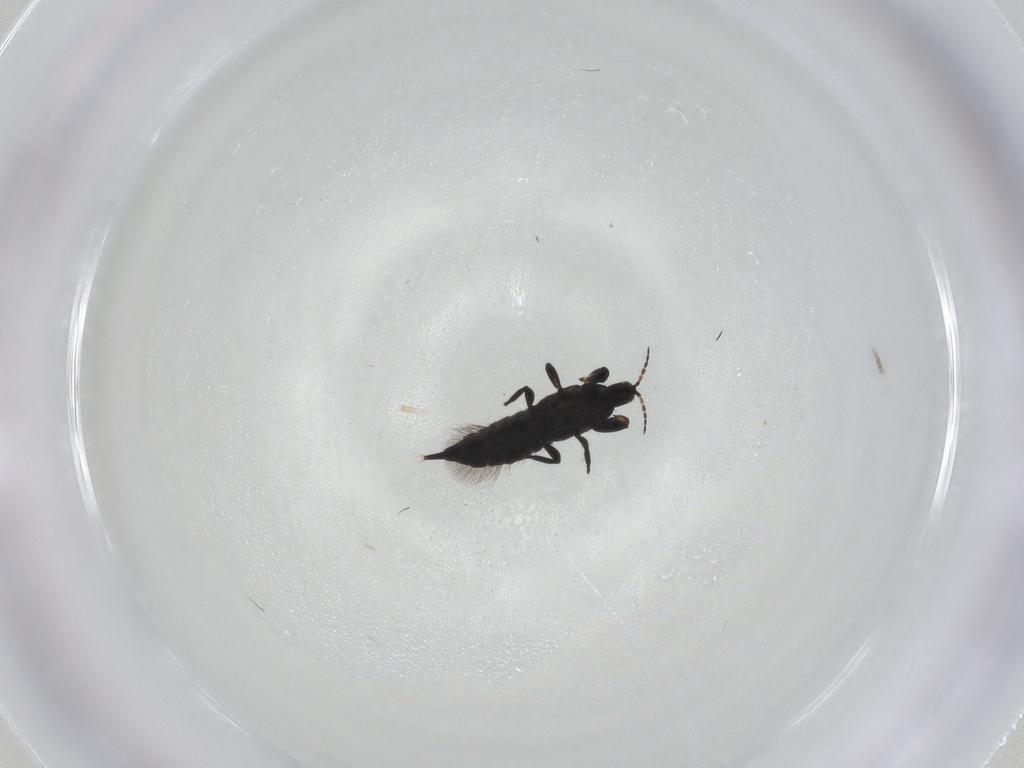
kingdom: Animalia
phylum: Arthropoda
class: Insecta
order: Thysanoptera
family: Phlaeothripidae
